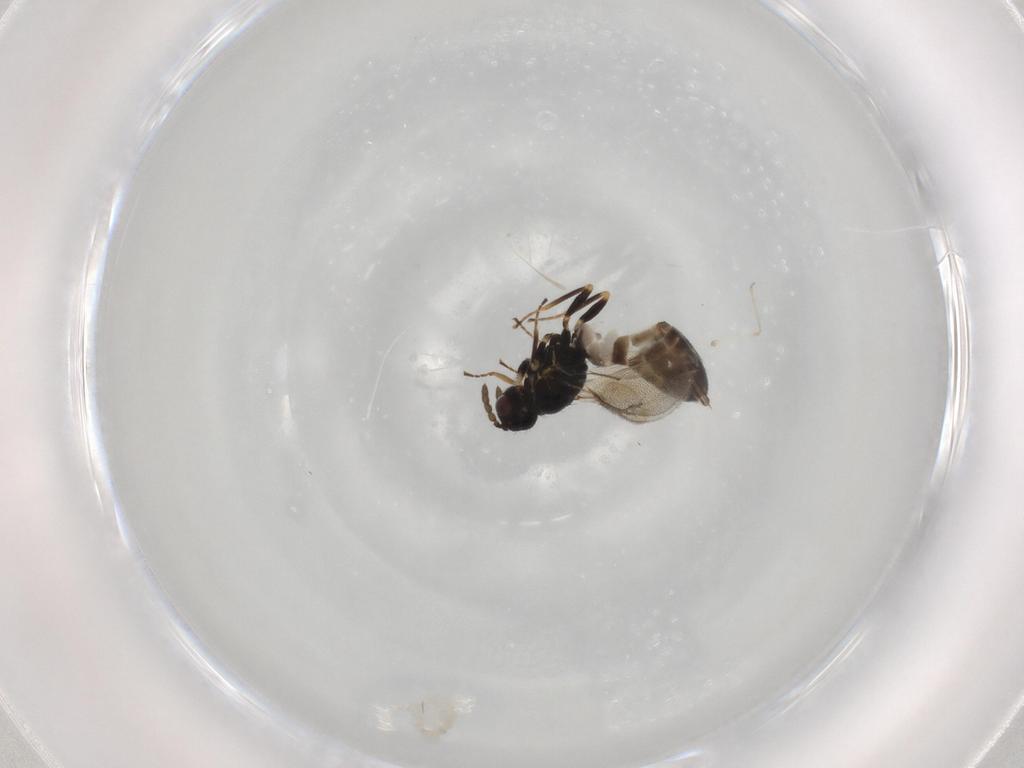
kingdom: Animalia
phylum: Arthropoda
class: Insecta
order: Hymenoptera
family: Eulophidae
